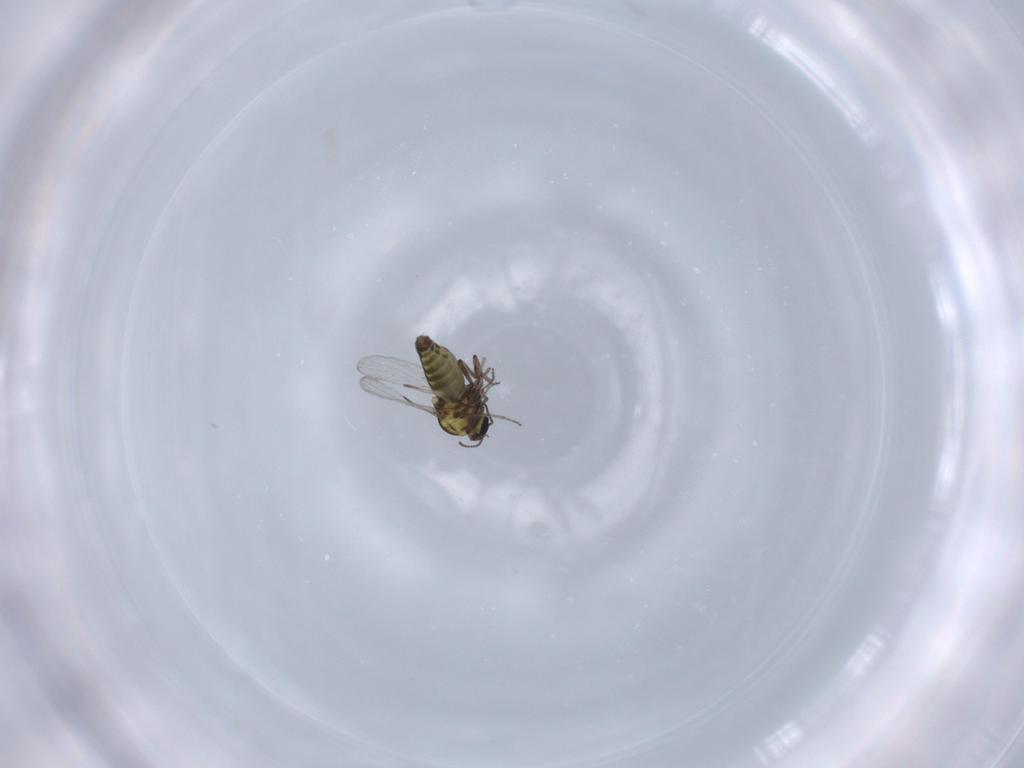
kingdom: Animalia
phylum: Arthropoda
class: Insecta
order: Diptera
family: Ceratopogonidae
